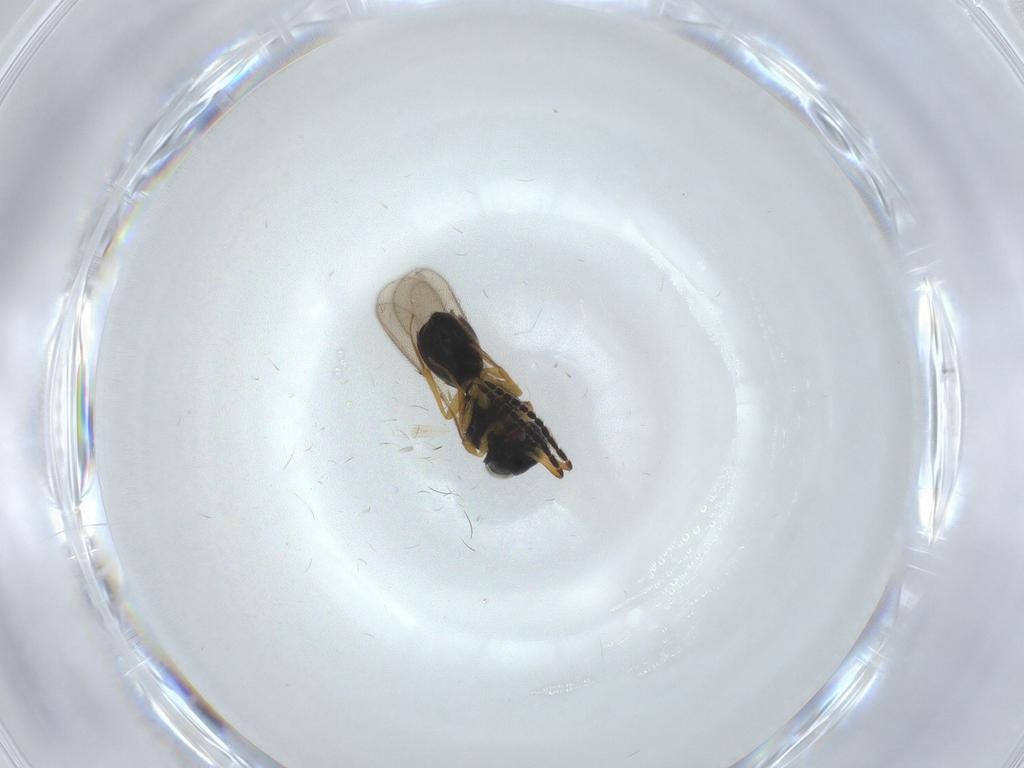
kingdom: Animalia
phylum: Arthropoda
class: Insecta
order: Hymenoptera
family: Scelionidae
